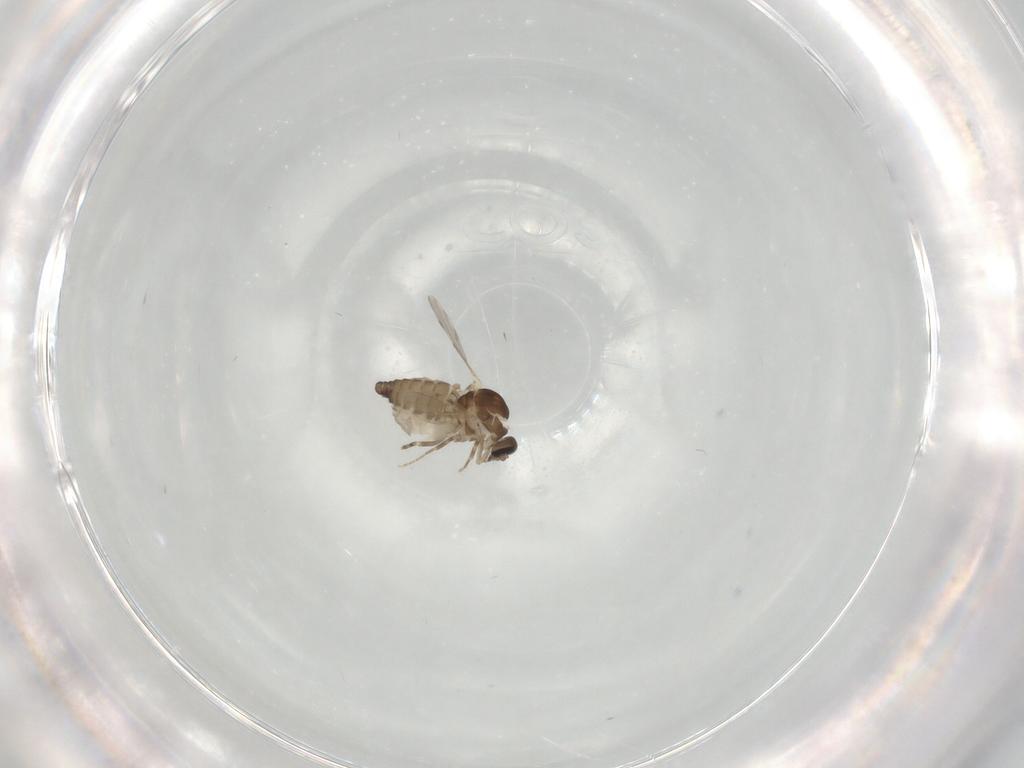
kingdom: Animalia
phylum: Arthropoda
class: Insecta
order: Diptera
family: Ceratopogonidae
